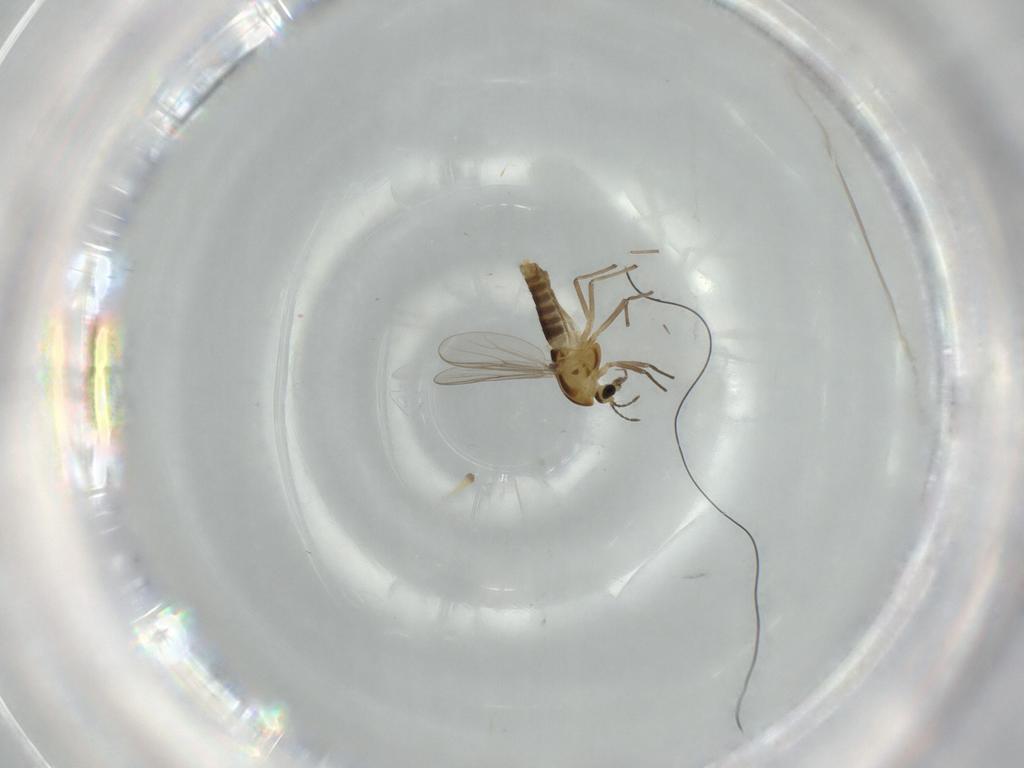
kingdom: Animalia
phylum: Arthropoda
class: Insecta
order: Diptera
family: Chironomidae
